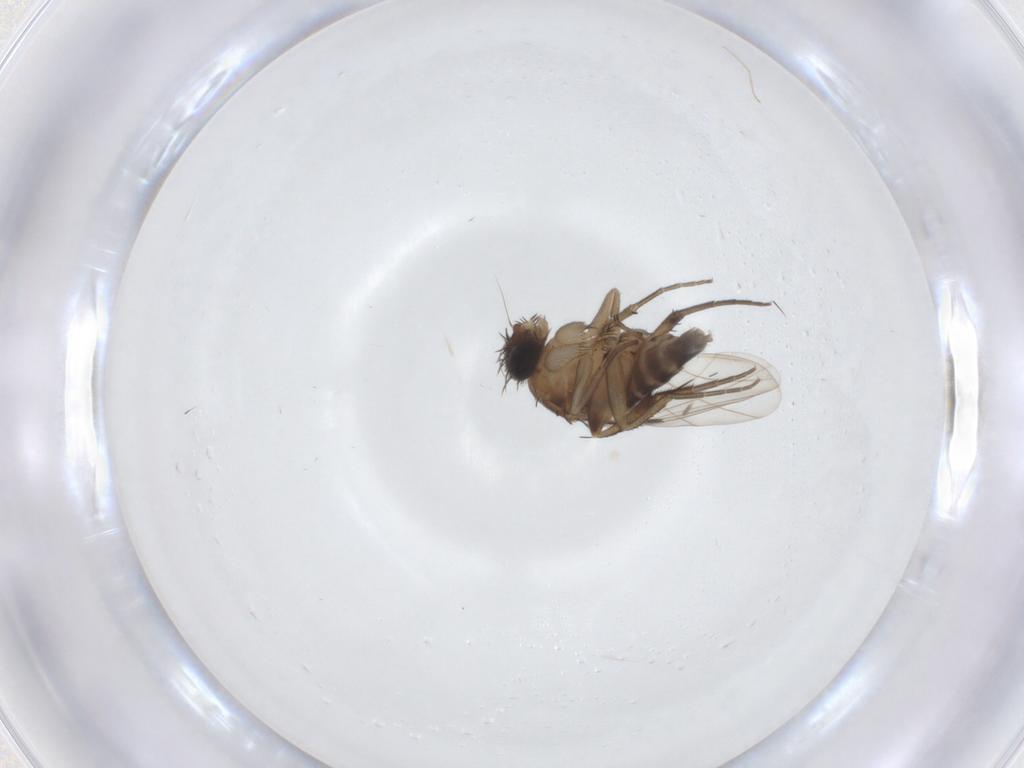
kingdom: Animalia
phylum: Arthropoda
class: Insecta
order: Diptera
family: Phoridae
